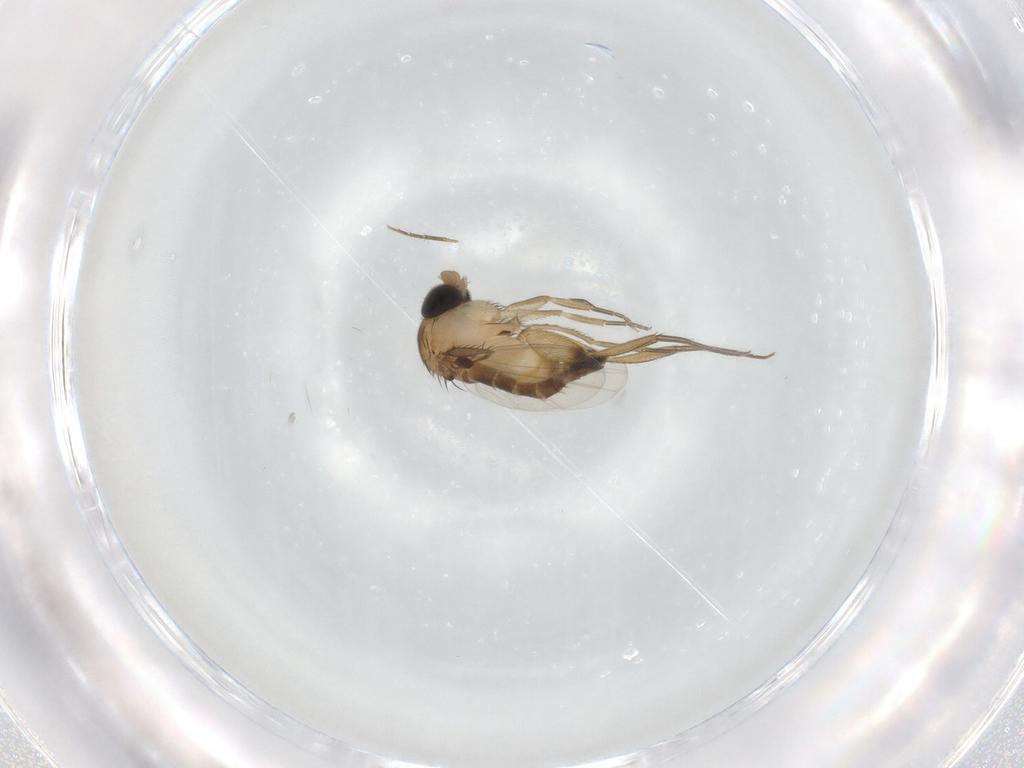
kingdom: Animalia
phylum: Arthropoda
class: Insecta
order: Diptera
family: Phoridae
